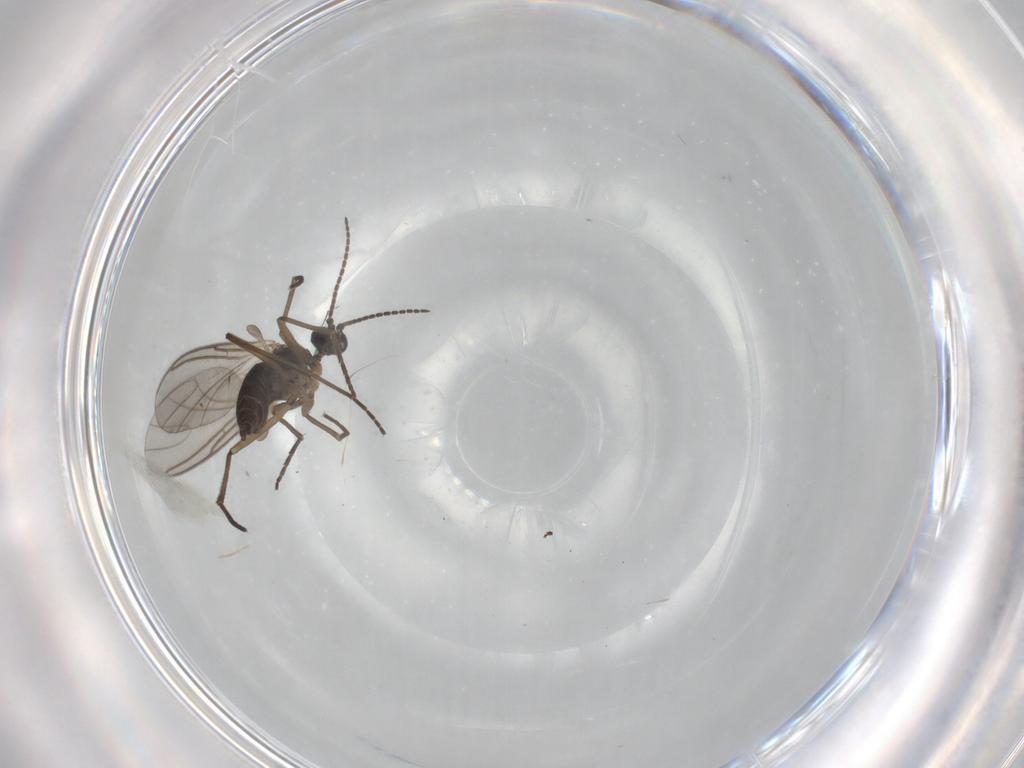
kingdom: Animalia
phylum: Arthropoda
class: Insecta
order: Diptera
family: Sciaridae
